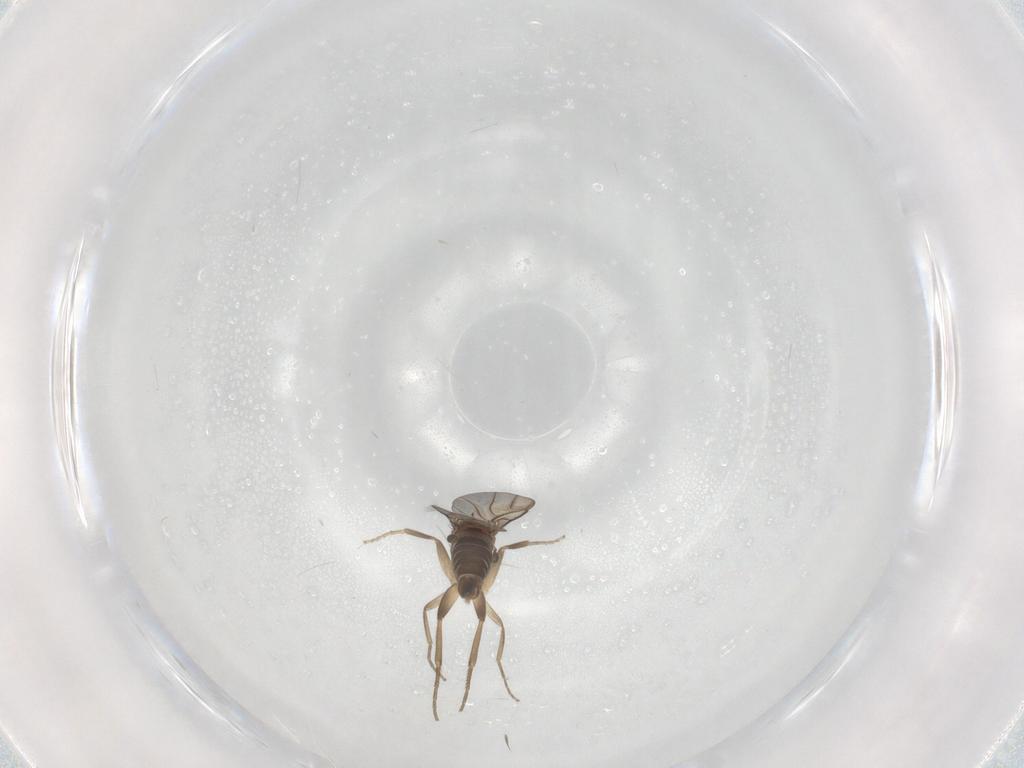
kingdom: Animalia
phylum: Arthropoda
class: Insecta
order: Diptera
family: Phoridae
